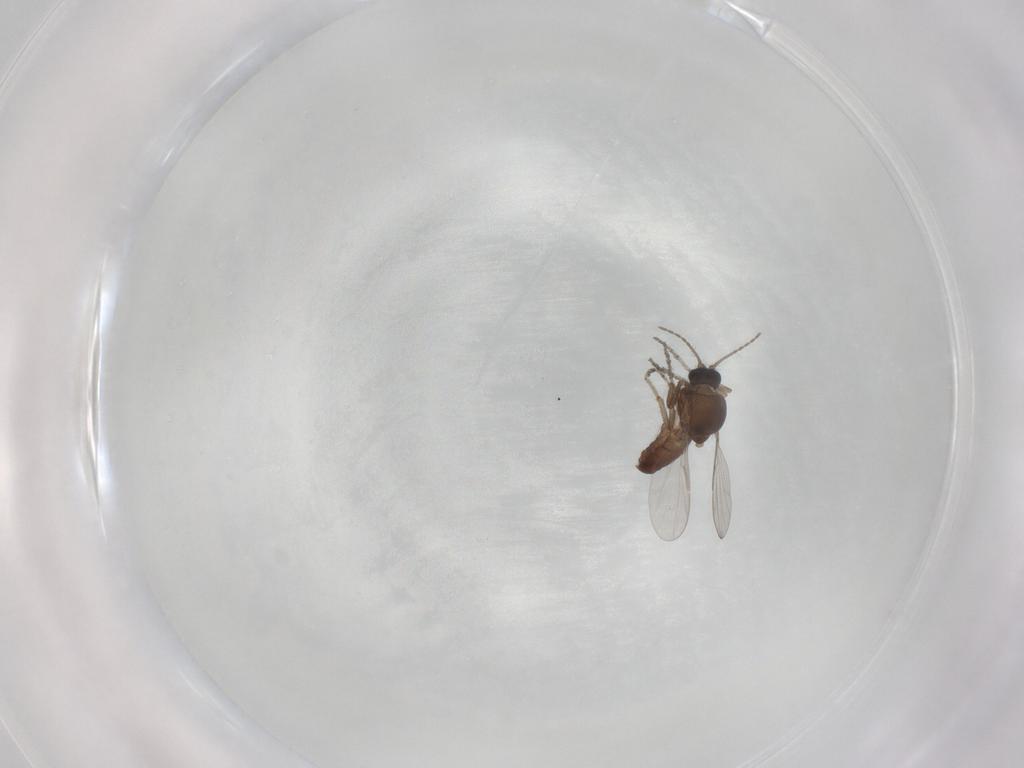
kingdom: Animalia
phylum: Arthropoda
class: Insecta
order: Diptera
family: Ceratopogonidae
